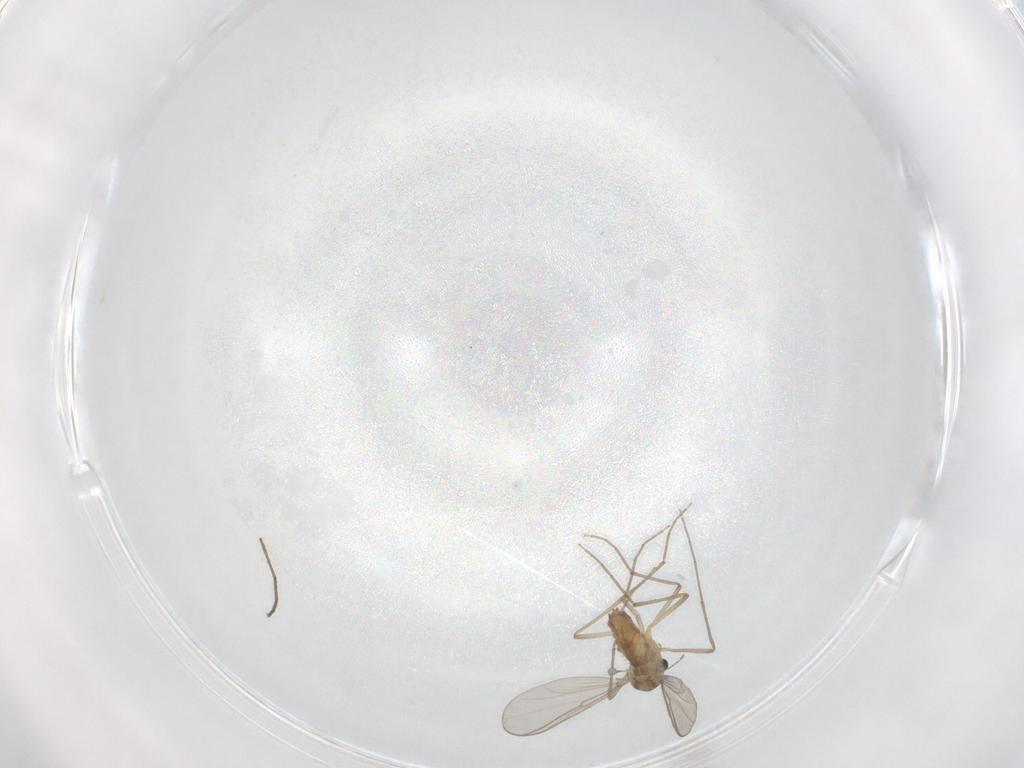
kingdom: Animalia
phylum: Arthropoda
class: Insecta
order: Diptera
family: Chironomidae
